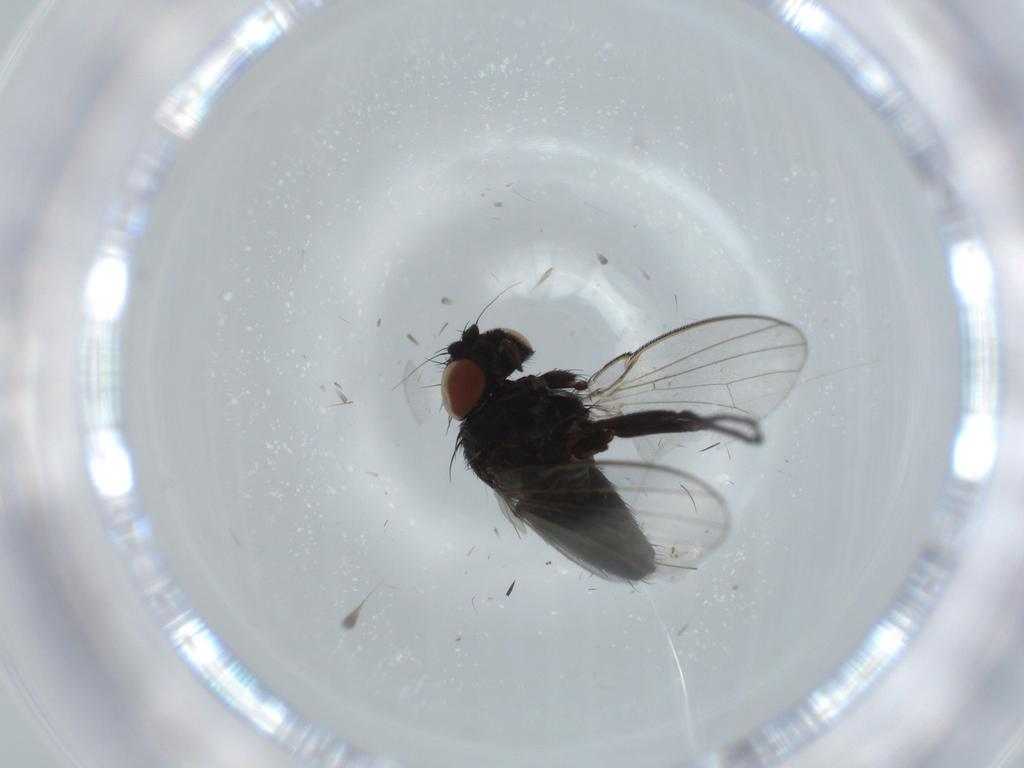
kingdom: Animalia
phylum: Arthropoda
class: Insecta
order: Diptera
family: Milichiidae
